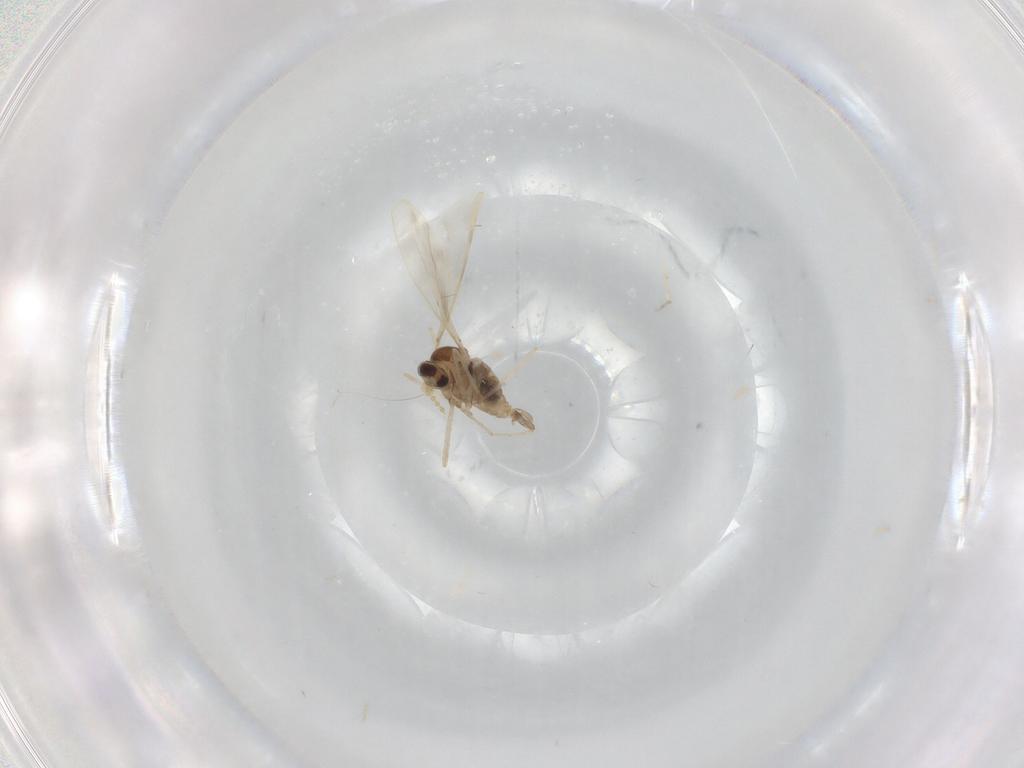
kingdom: Animalia
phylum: Arthropoda
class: Insecta
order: Diptera
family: Cecidomyiidae
